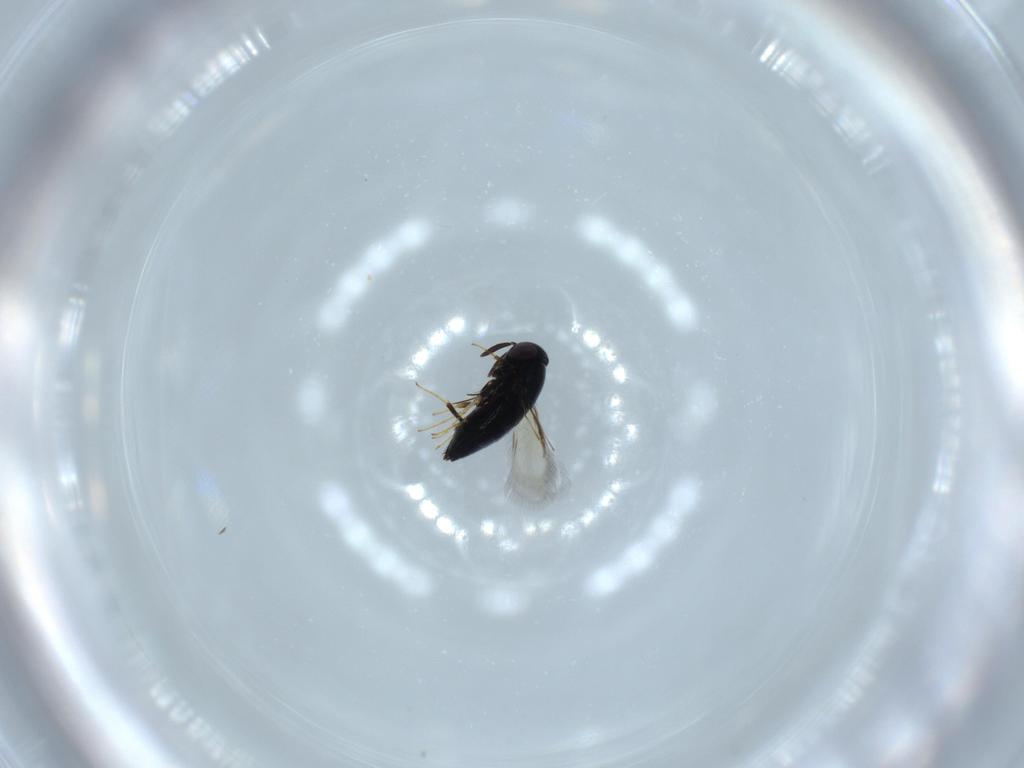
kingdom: Animalia
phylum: Arthropoda
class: Insecta
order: Hymenoptera
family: Signiphoridae
